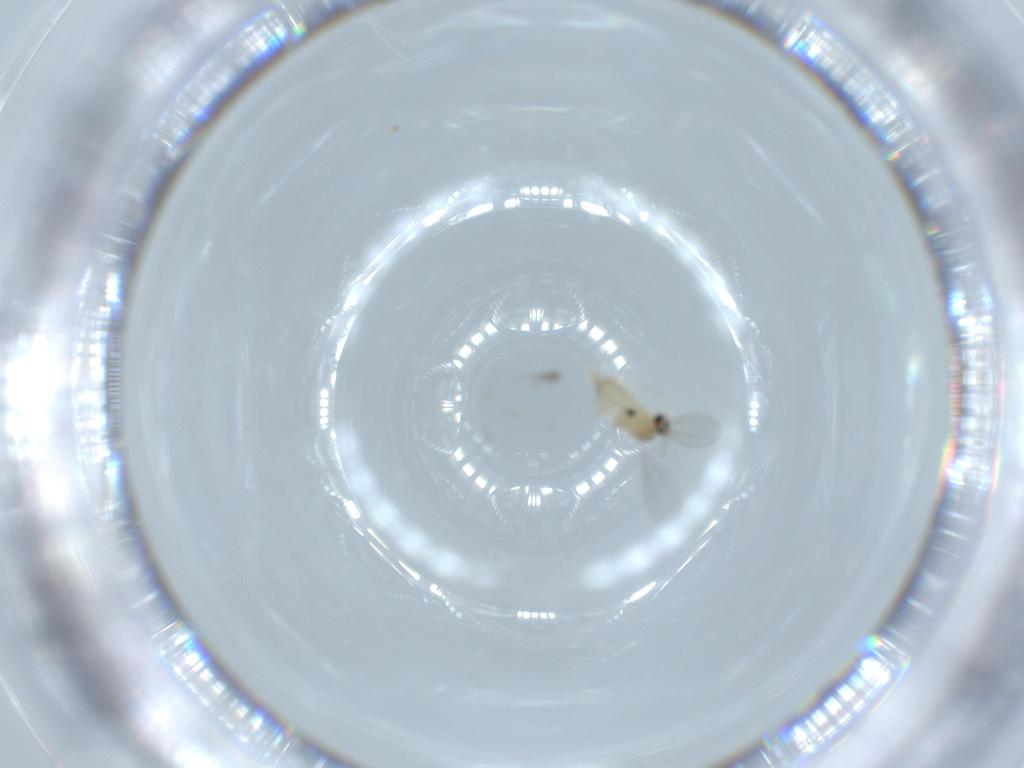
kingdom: Animalia
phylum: Arthropoda
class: Insecta
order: Diptera
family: Cecidomyiidae
